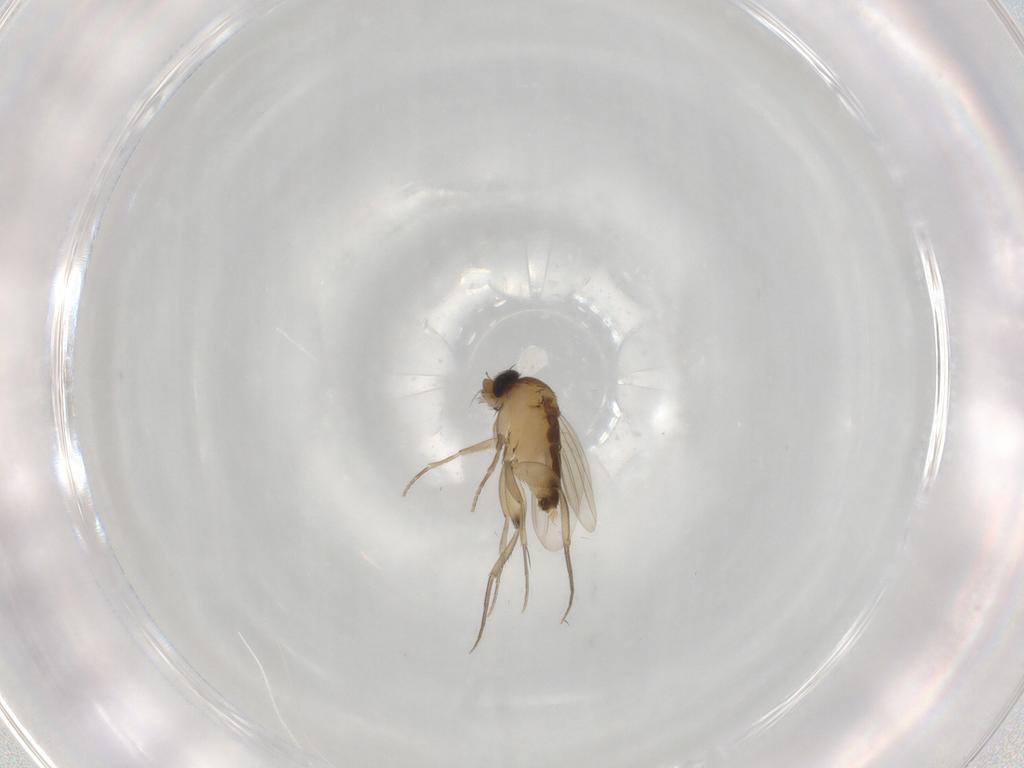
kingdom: Animalia
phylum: Arthropoda
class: Insecta
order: Diptera
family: Phoridae
